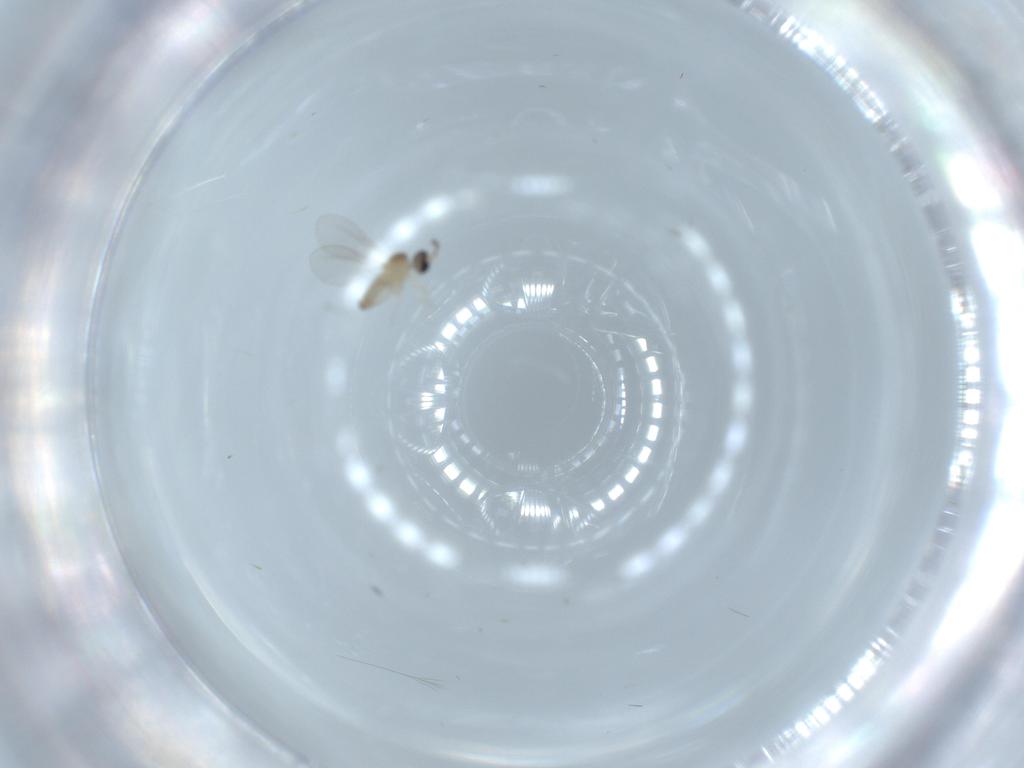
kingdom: Animalia
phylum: Arthropoda
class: Insecta
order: Diptera
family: Cecidomyiidae
